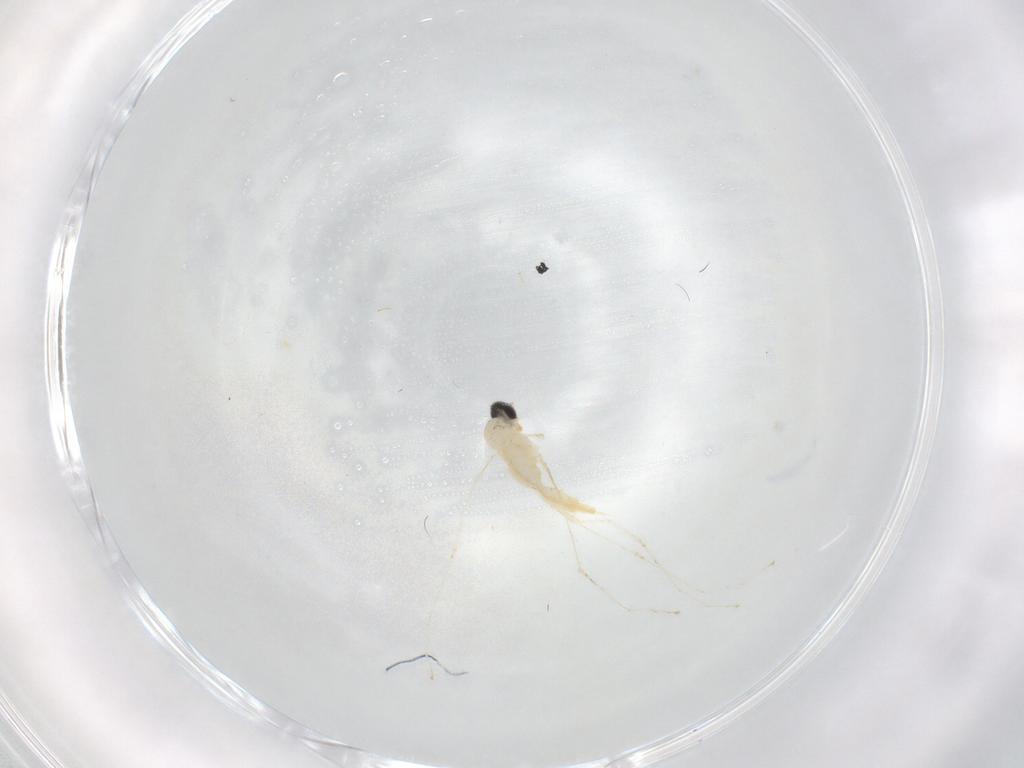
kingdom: Animalia
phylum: Arthropoda
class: Insecta
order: Diptera
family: Cecidomyiidae
